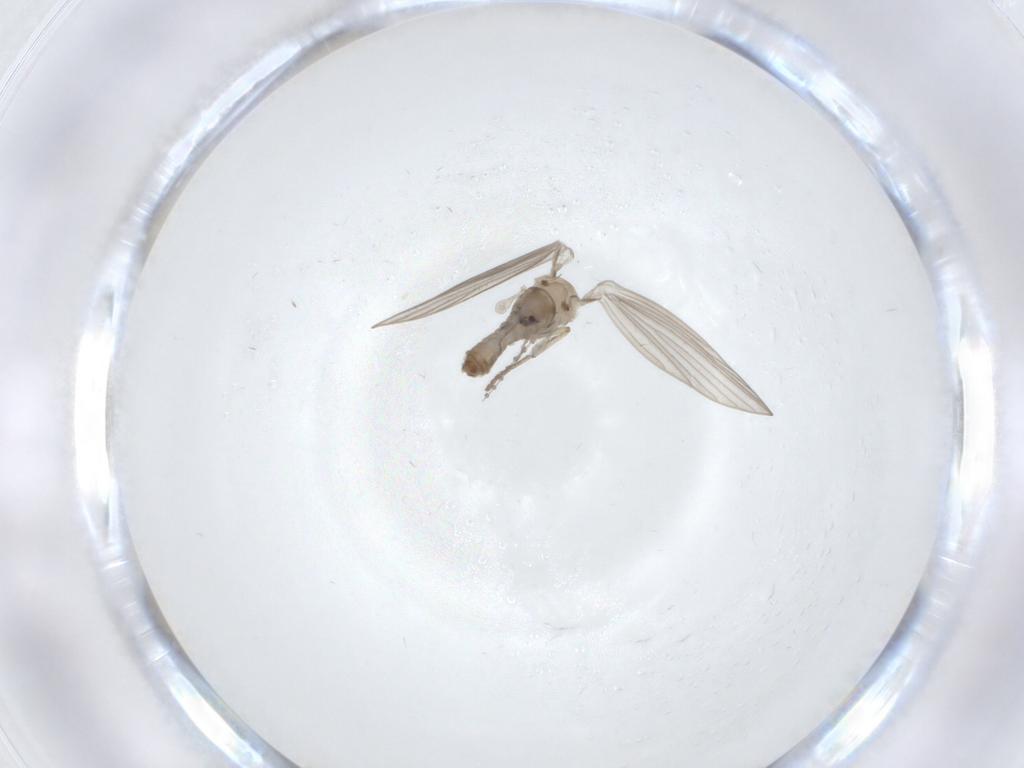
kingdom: Animalia
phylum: Arthropoda
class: Insecta
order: Diptera
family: Psychodidae
